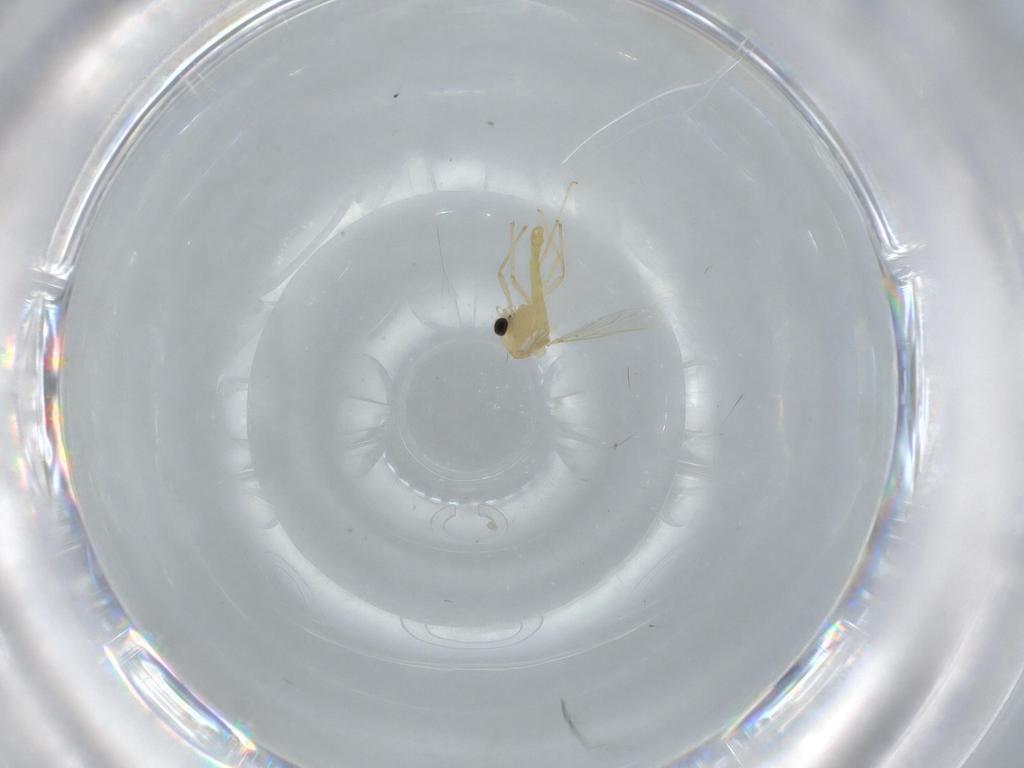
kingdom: Animalia
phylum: Arthropoda
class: Insecta
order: Diptera
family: Chironomidae
